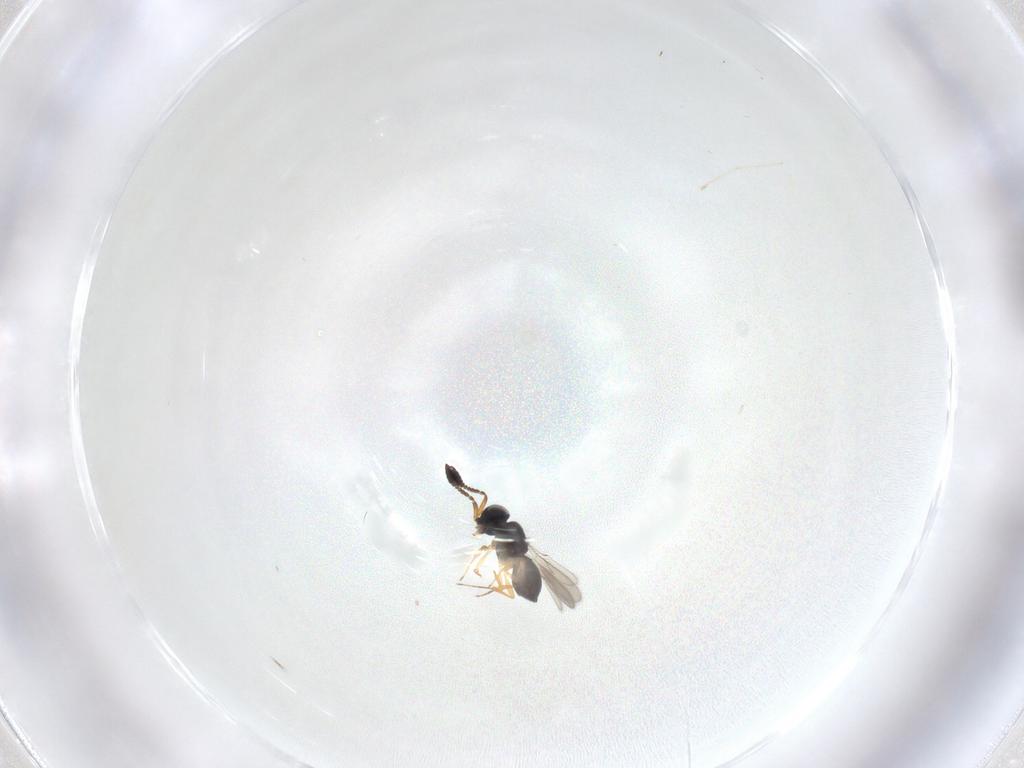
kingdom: Animalia
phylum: Arthropoda
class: Insecta
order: Hymenoptera
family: Scelionidae
